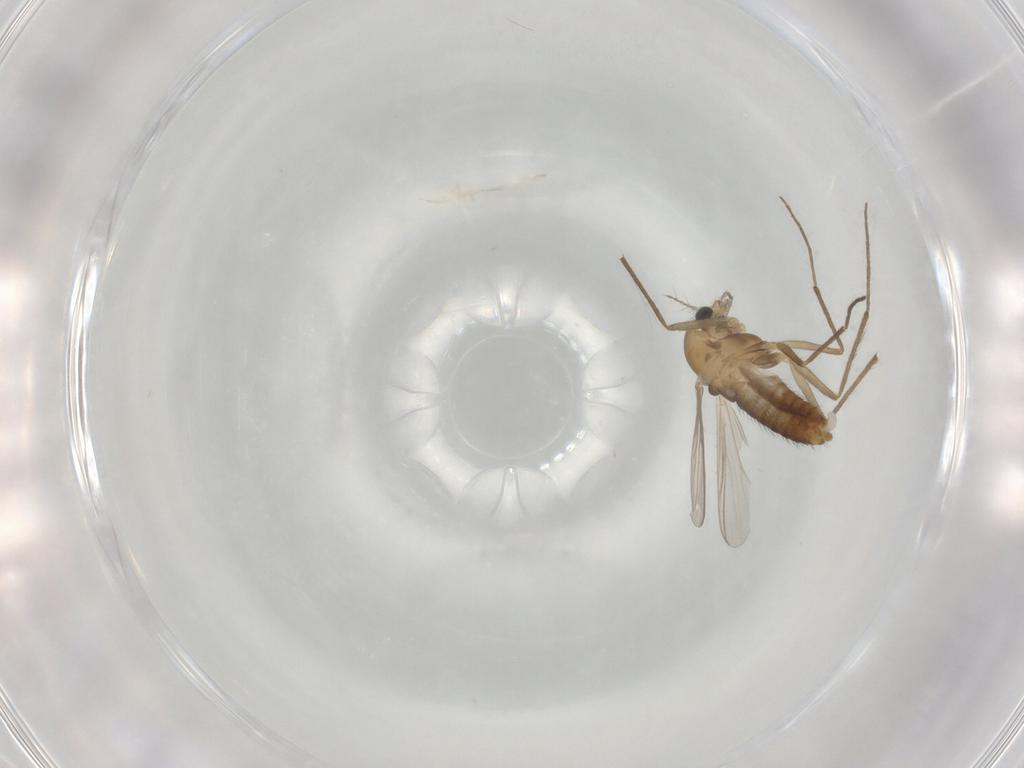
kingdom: Animalia
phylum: Arthropoda
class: Insecta
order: Diptera
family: Chironomidae
